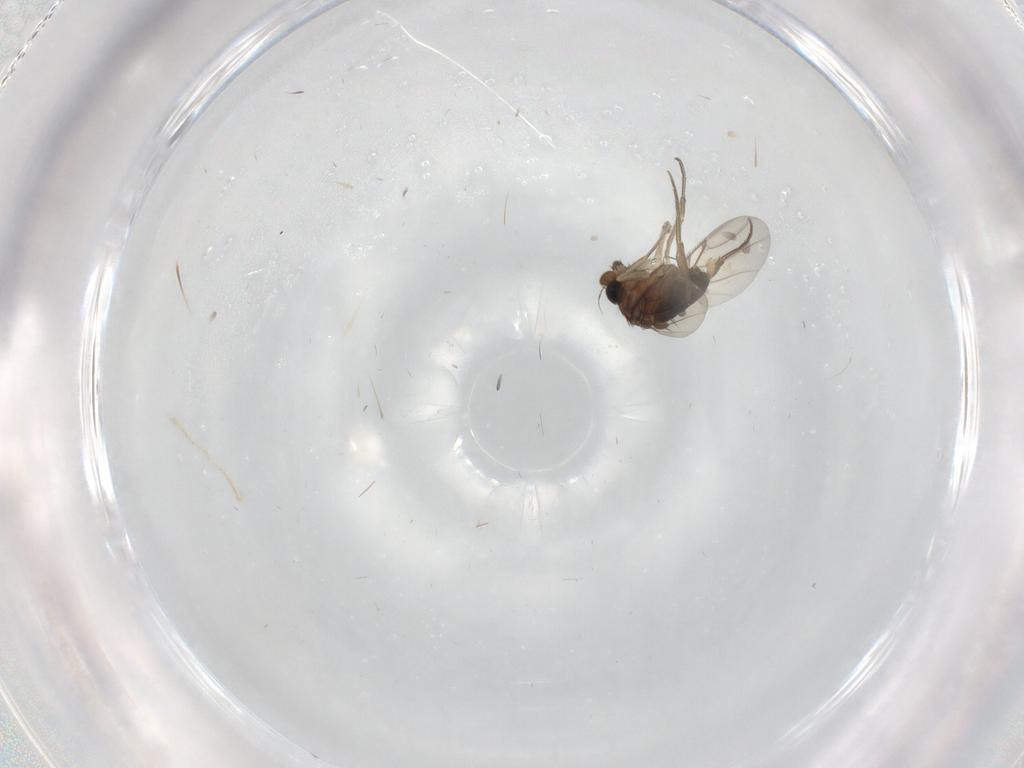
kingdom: Animalia
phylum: Arthropoda
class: Insecta
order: Diptera
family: Phoridae
